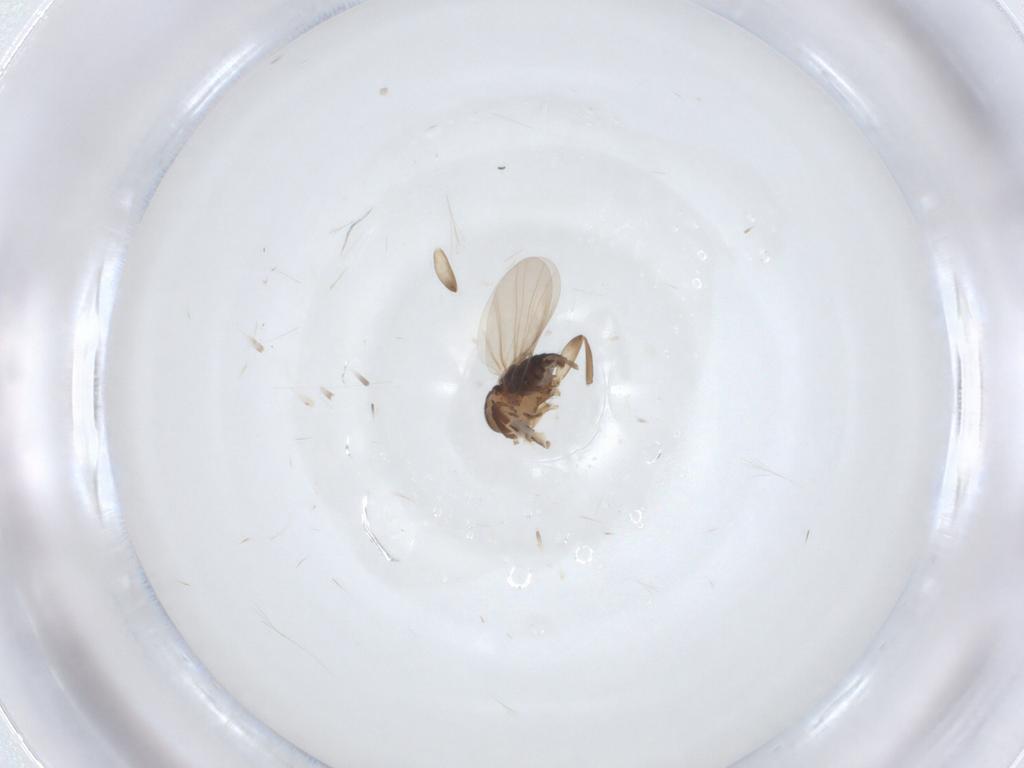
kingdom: Animalia
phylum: Arthropoda
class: Insecta
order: Diptera
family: Phoridae
